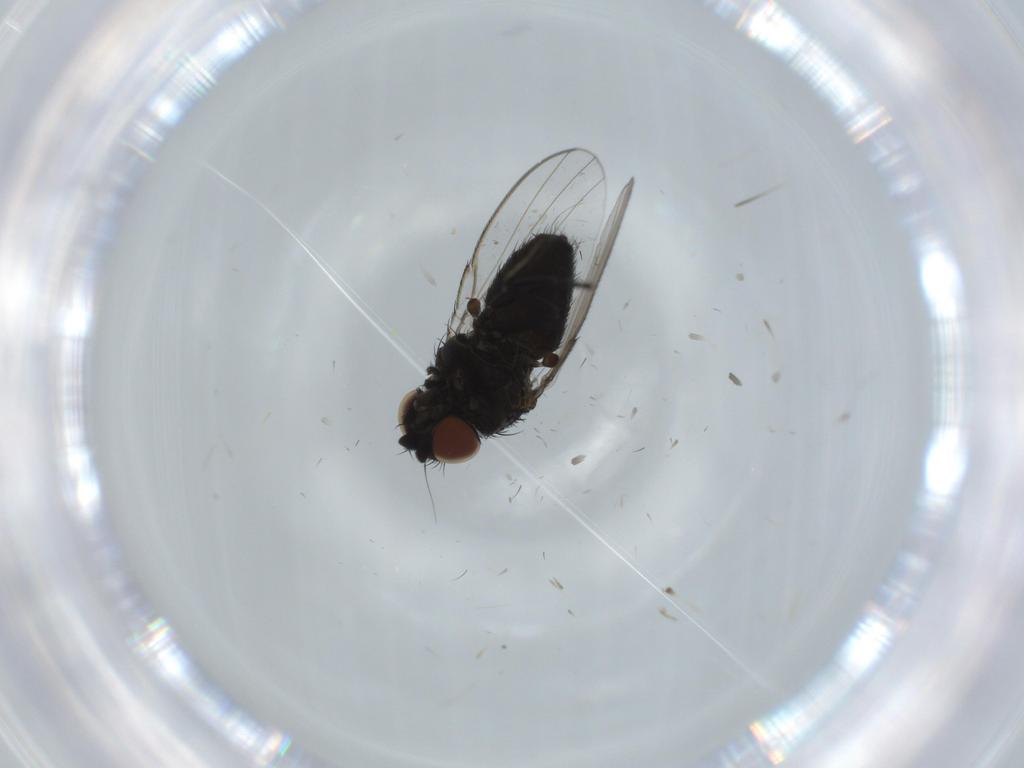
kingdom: Animalia
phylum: Arthropoda
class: Insecta
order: Diptera
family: Milichiidae
